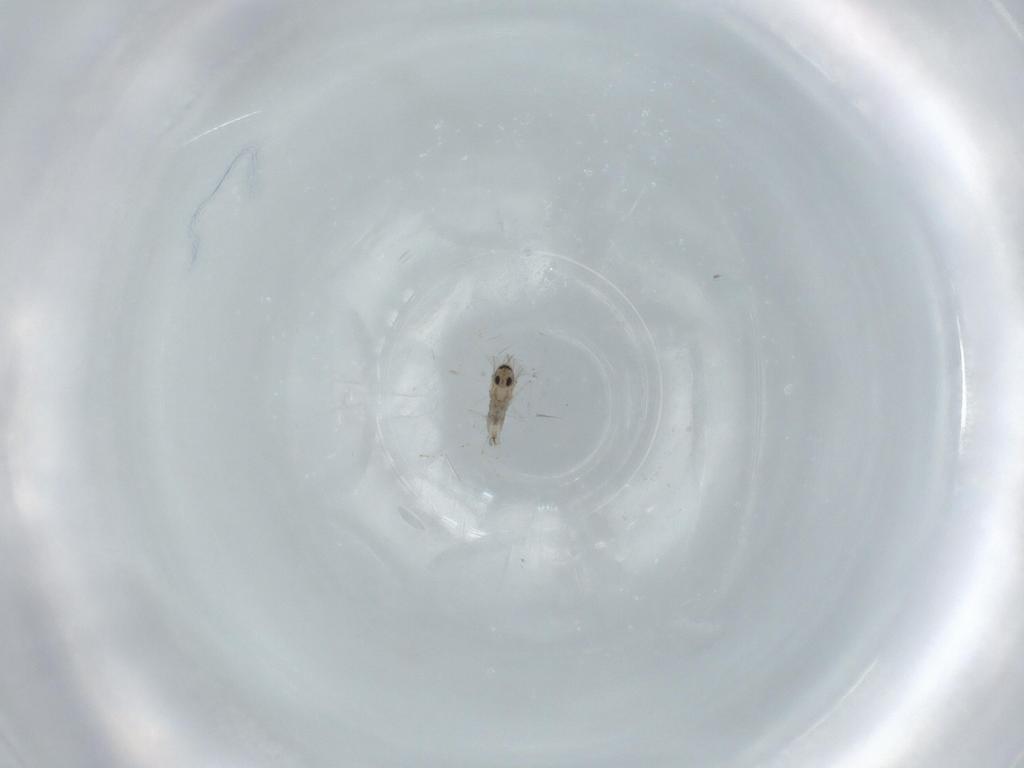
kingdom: Animalia
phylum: Arthropoda
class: Insecta
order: Diptera
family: Cecidomyiidae
